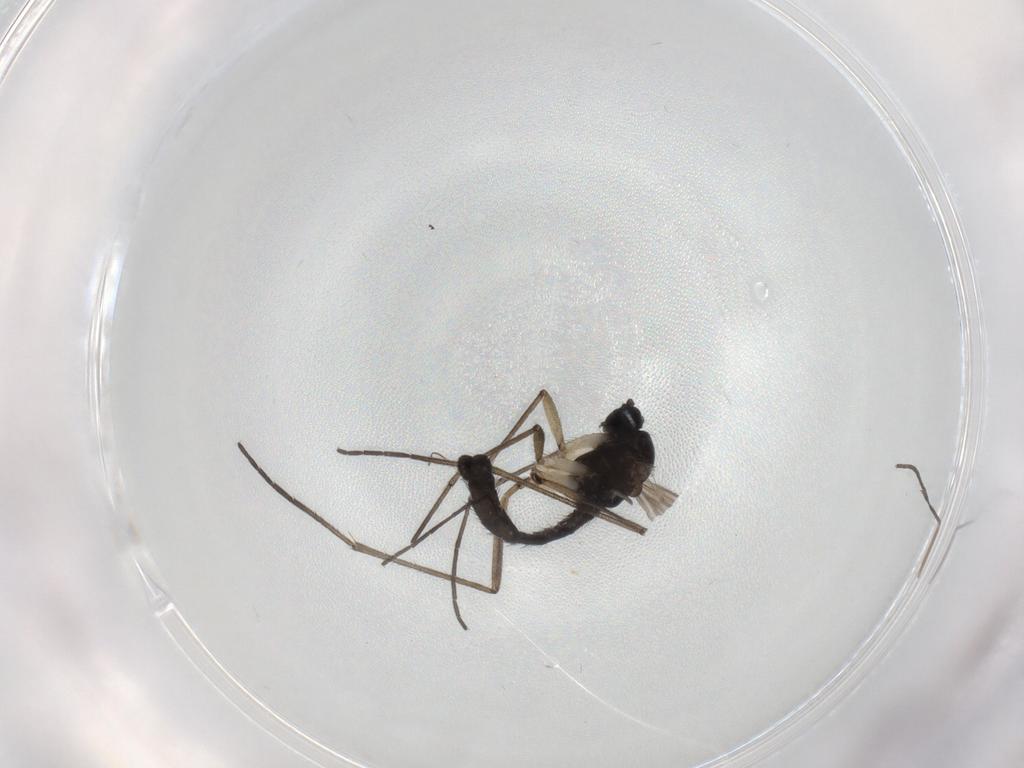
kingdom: Animalia
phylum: Arthropoda
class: Insecta
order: Diptera
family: Sciaridae
